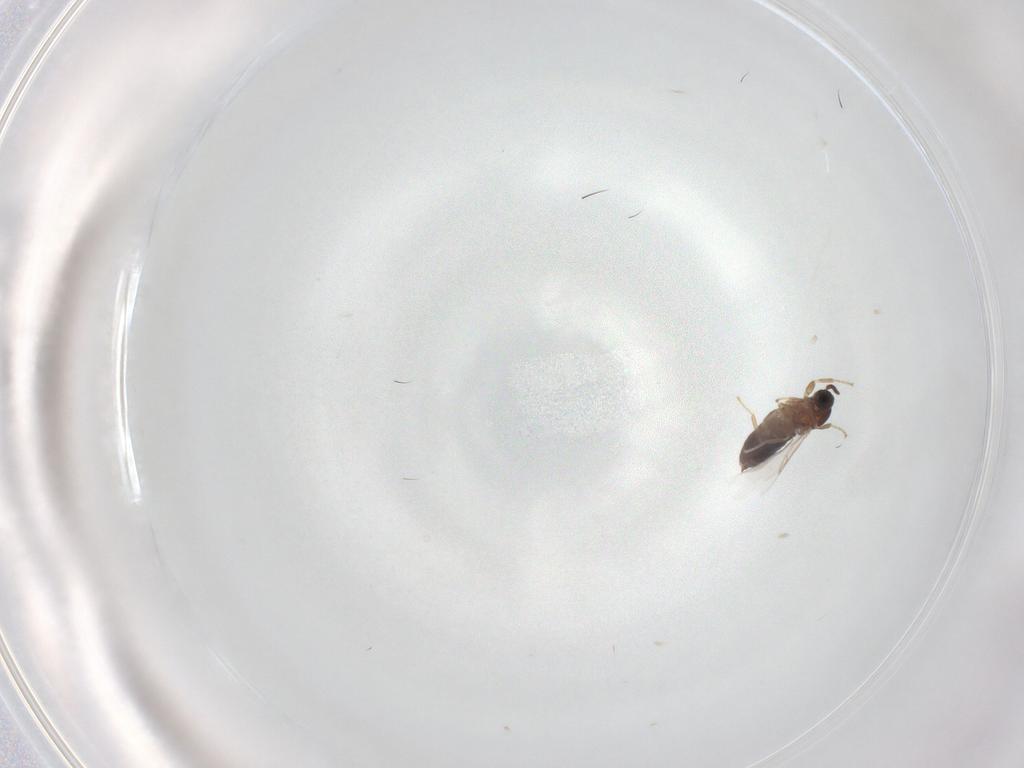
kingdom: Animalia
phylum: Arthropoda
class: Insecta
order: Diptera
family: Scatopsidae
